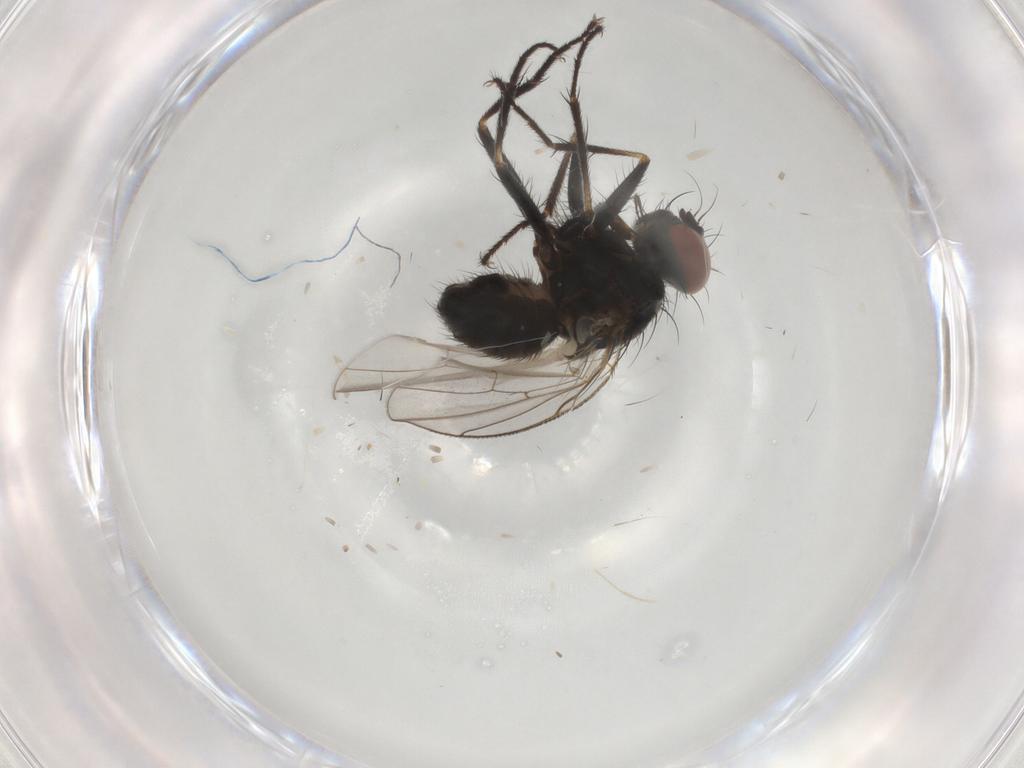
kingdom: Animalia
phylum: Arthropoda
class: Insecta
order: Diptera
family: Muscidae
